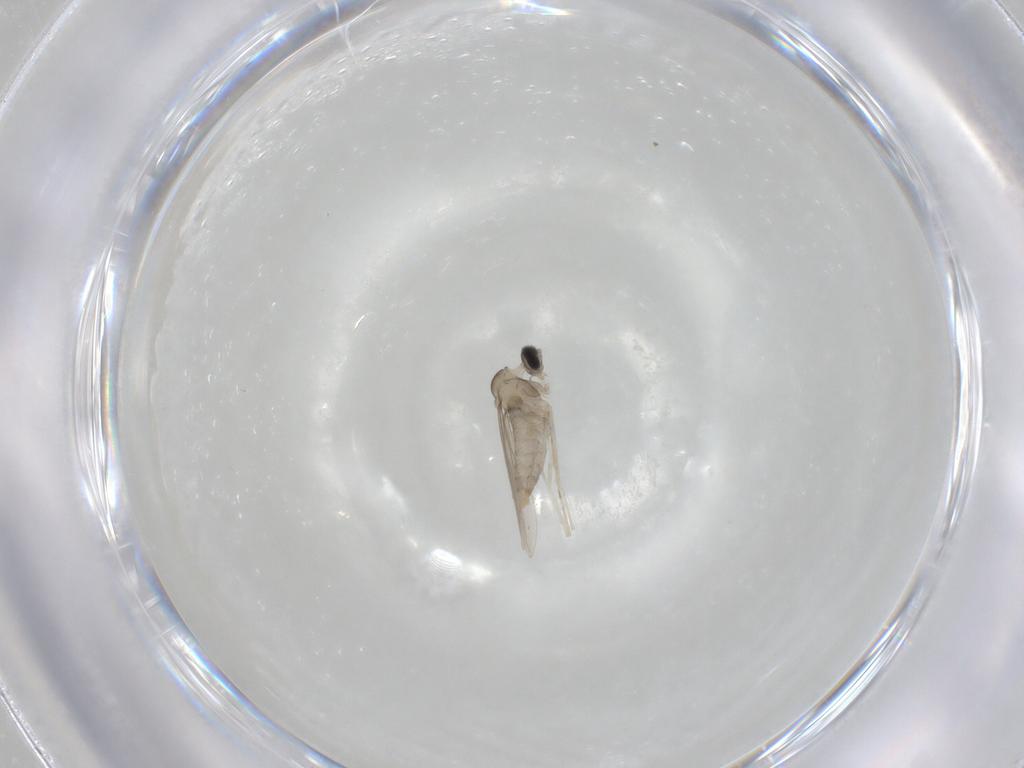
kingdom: Animalia
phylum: Arthropoda
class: Insecta
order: Diptera
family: Cecidomyiidae
